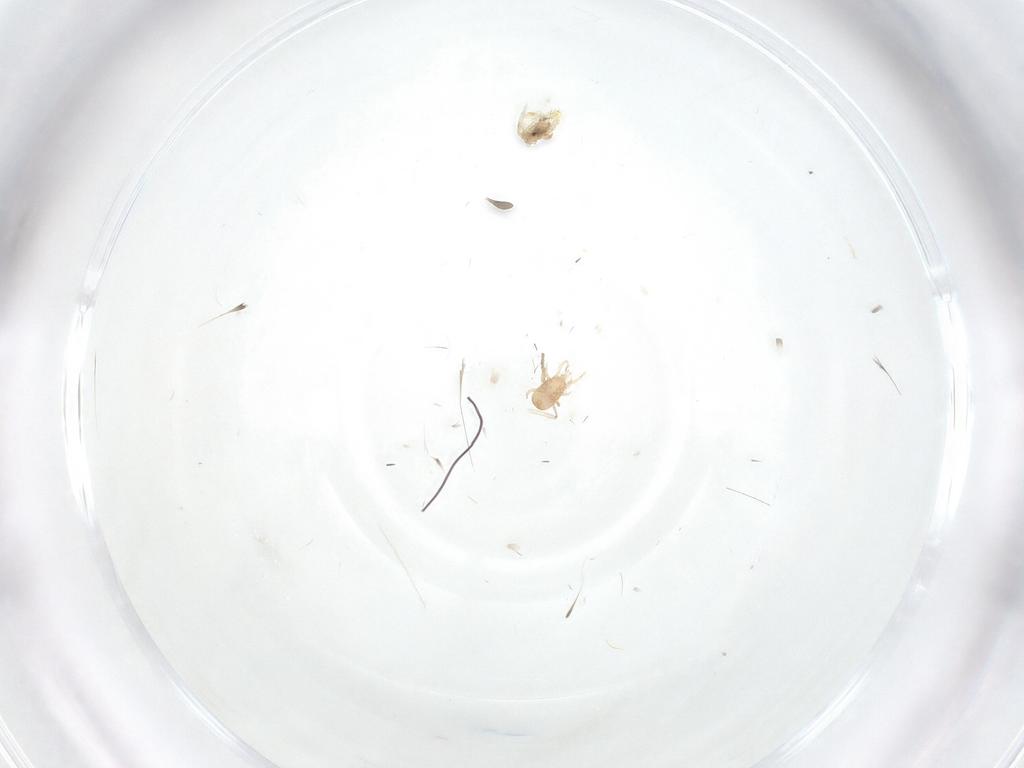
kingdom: Animalia
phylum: Arthropoda
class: Arachnida
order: Mesostigmata
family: Ascidae
